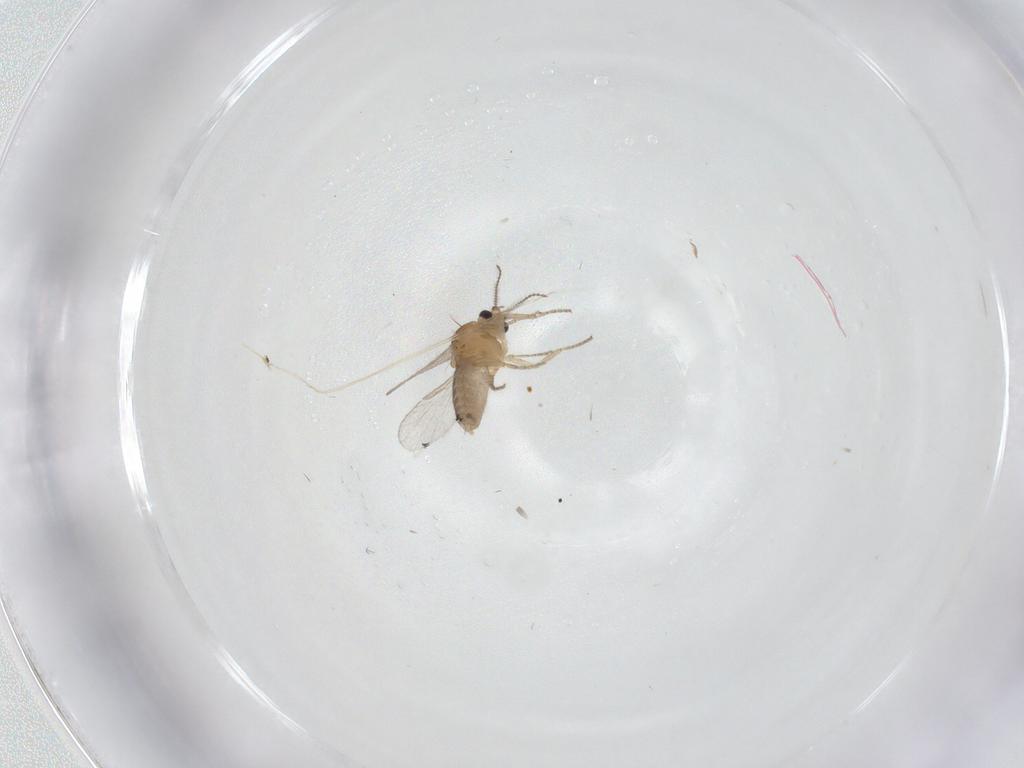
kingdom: Animalia
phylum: Arthropoda
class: Insecta
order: Diptera
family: Ceratopogonidae
